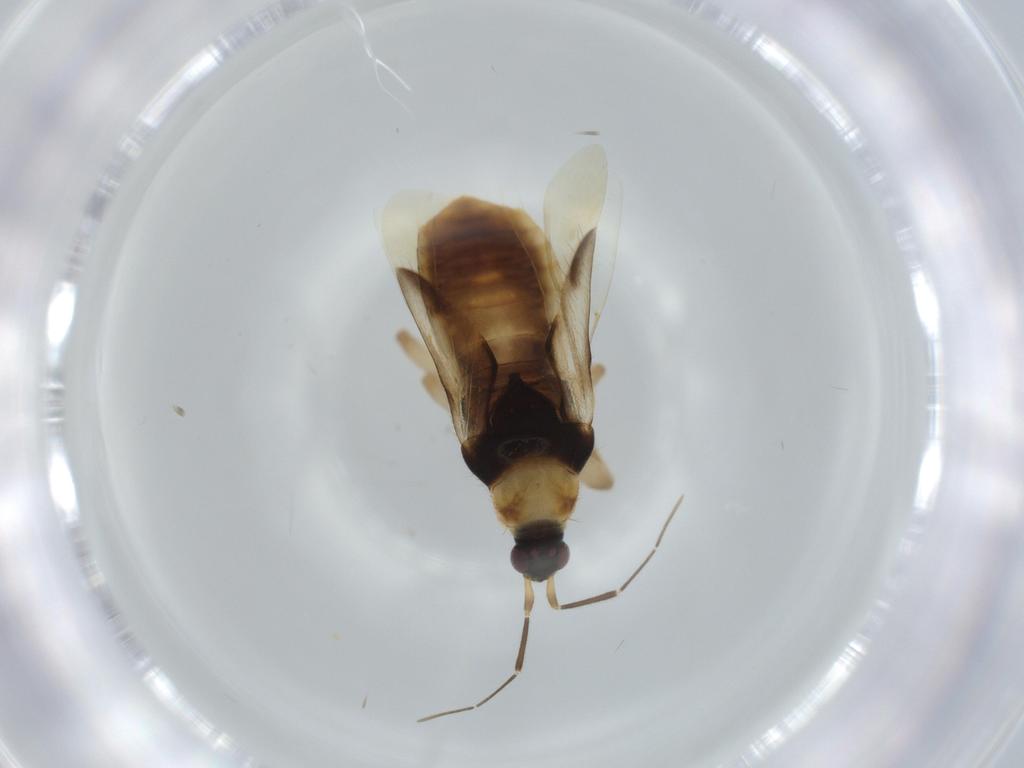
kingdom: Animalia
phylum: Arthropoda
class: Insecta
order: Hemiptera
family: Nabidae
